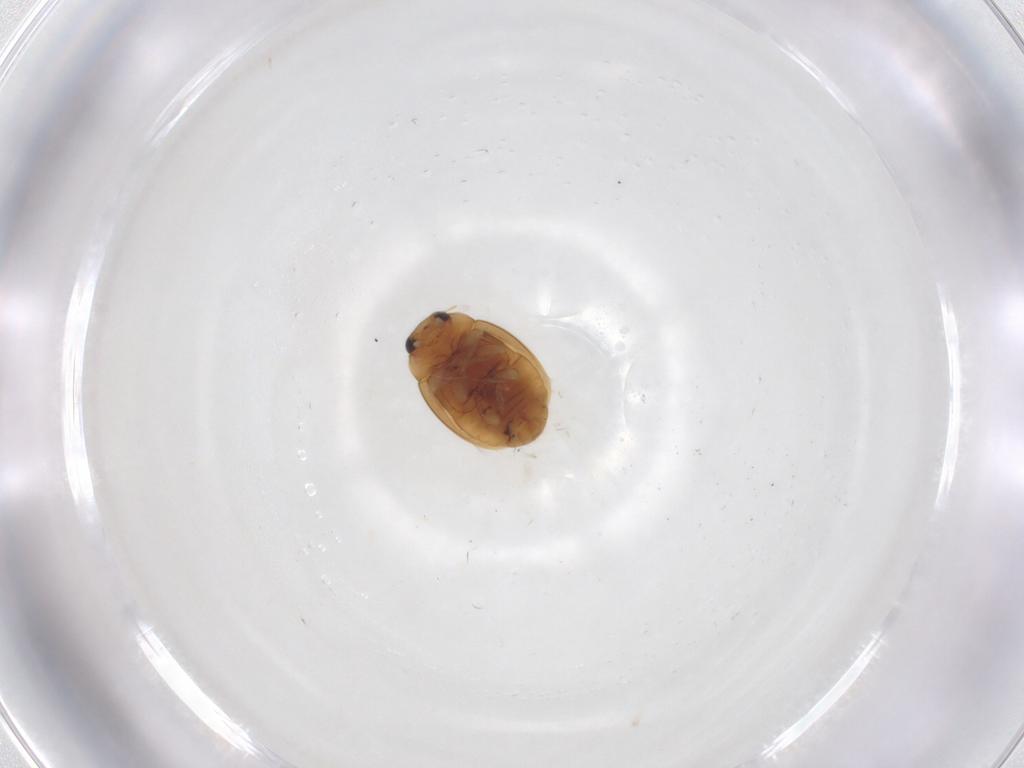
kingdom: Animalia
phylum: Arthropoda
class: Insecta
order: Coleoptera
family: Coccinellidae
